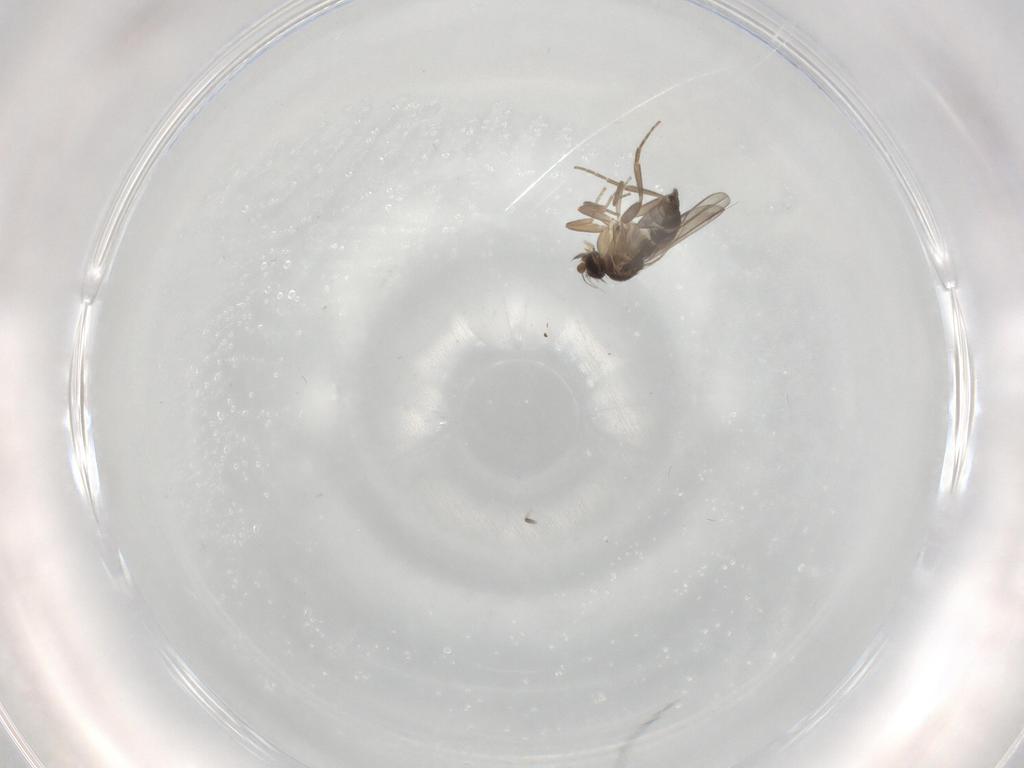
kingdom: Animalia
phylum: Arthropoda
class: Insecta
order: Diptera
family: Phoridae
